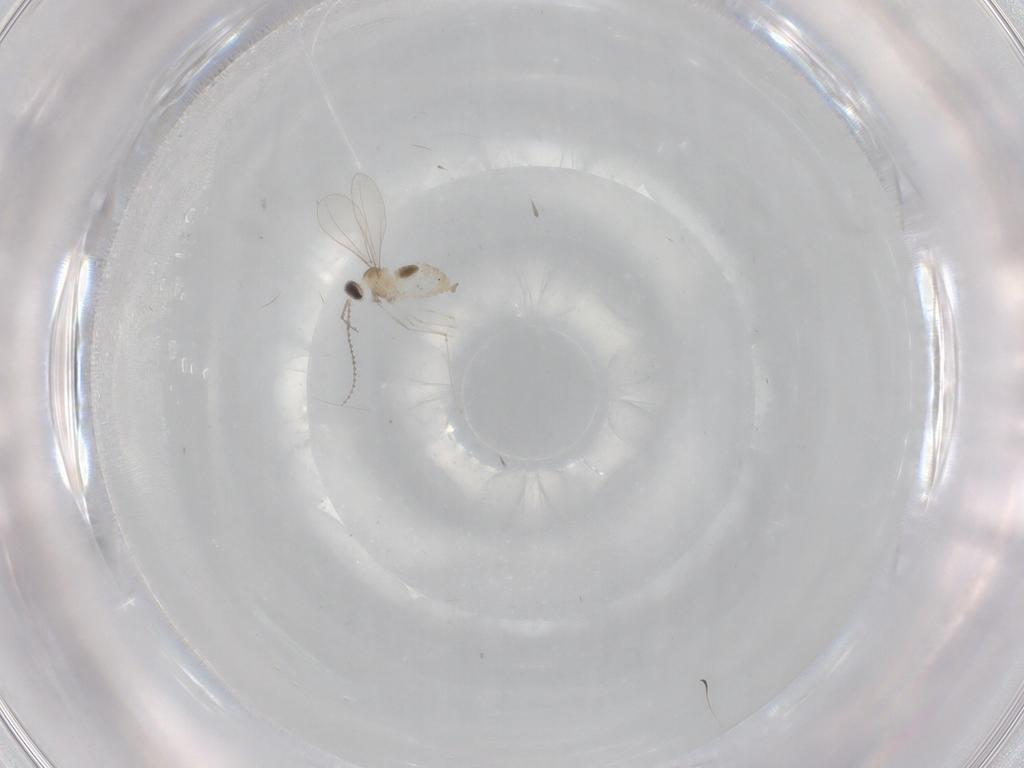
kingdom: Animalia
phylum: Arthropoda
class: Insecta
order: Diptera
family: Cecidomyiidae
